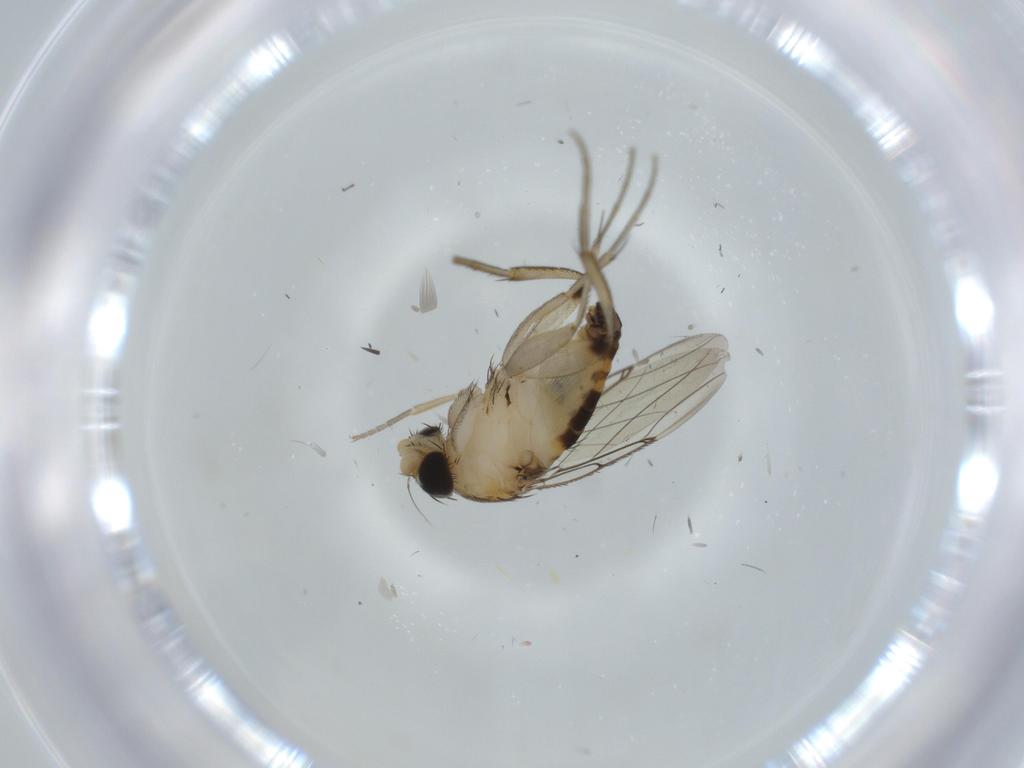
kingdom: Animalia
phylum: Arthropoda
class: Insecta
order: Diptera
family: Phoridae
